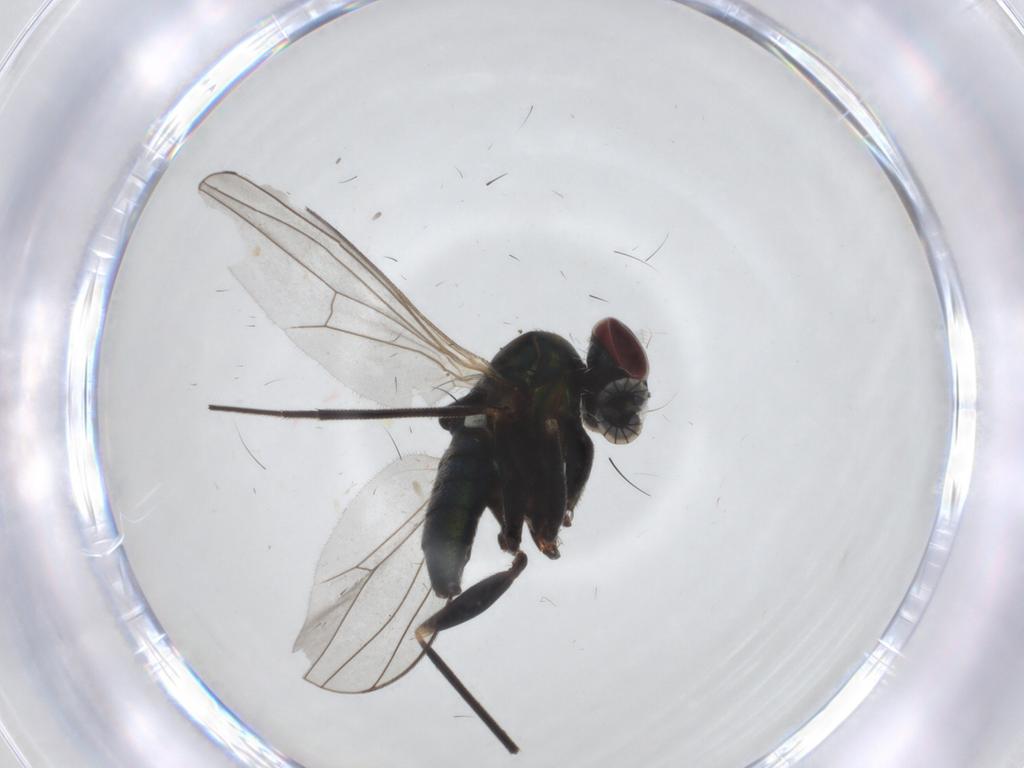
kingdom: Animalia
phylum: Arthropoda
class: Insecta
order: Diptera
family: Dolichopodidae
